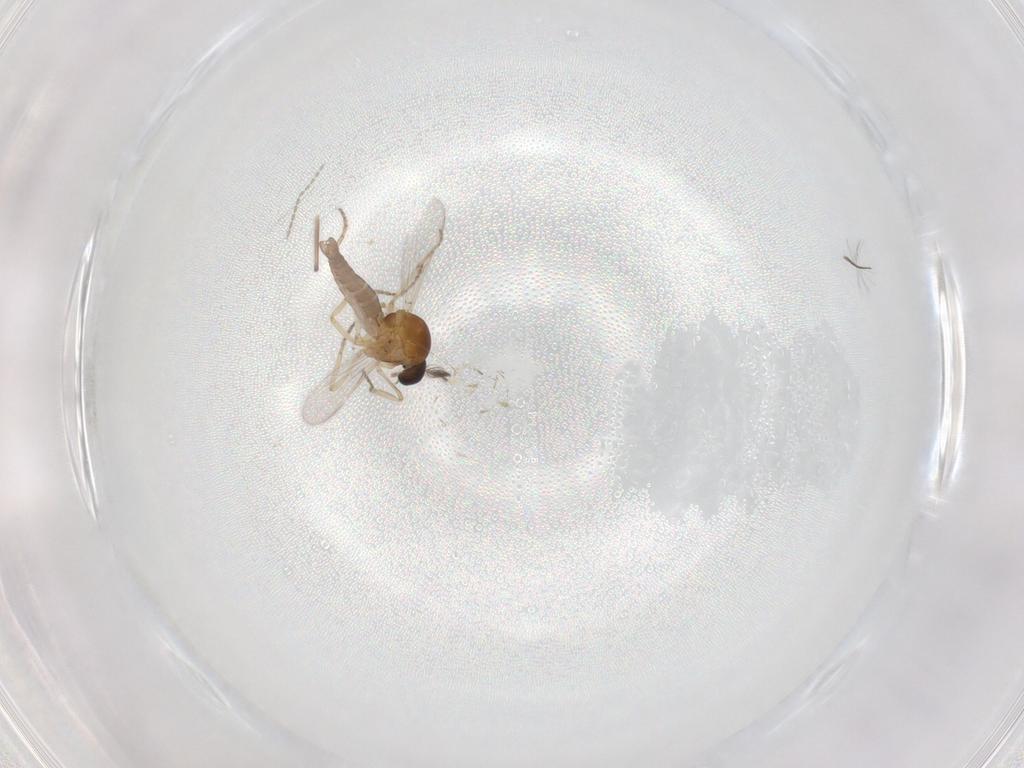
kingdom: Animalia
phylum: Arthropoda
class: Insecta
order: Diptera
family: Chironomidae
